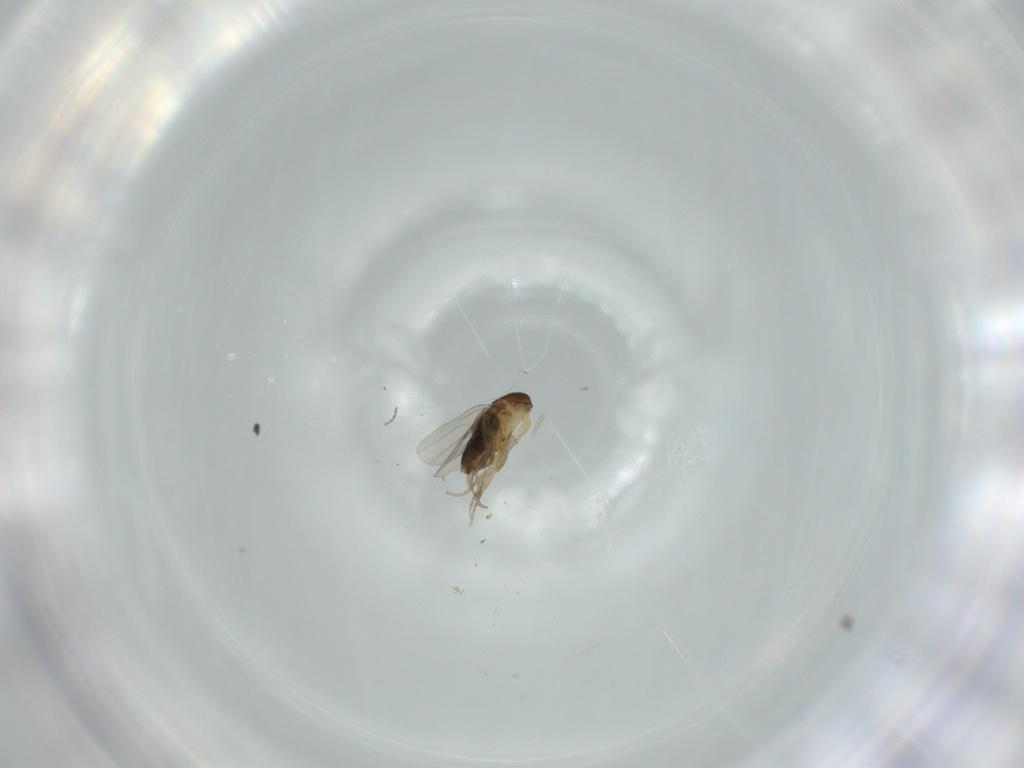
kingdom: Animalia
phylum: Arthropoda
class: Insecta
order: Diptera
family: Phoridae
